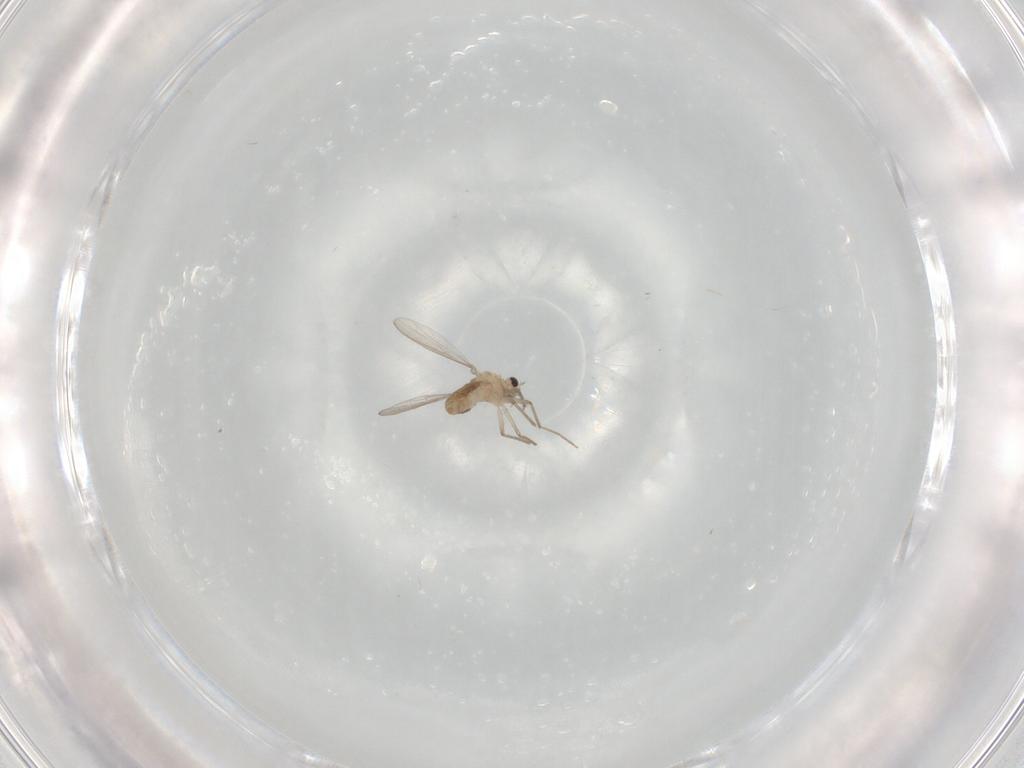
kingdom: Animalia
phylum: Arthropoda
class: Insecta
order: Diptera
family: Chironomidae
